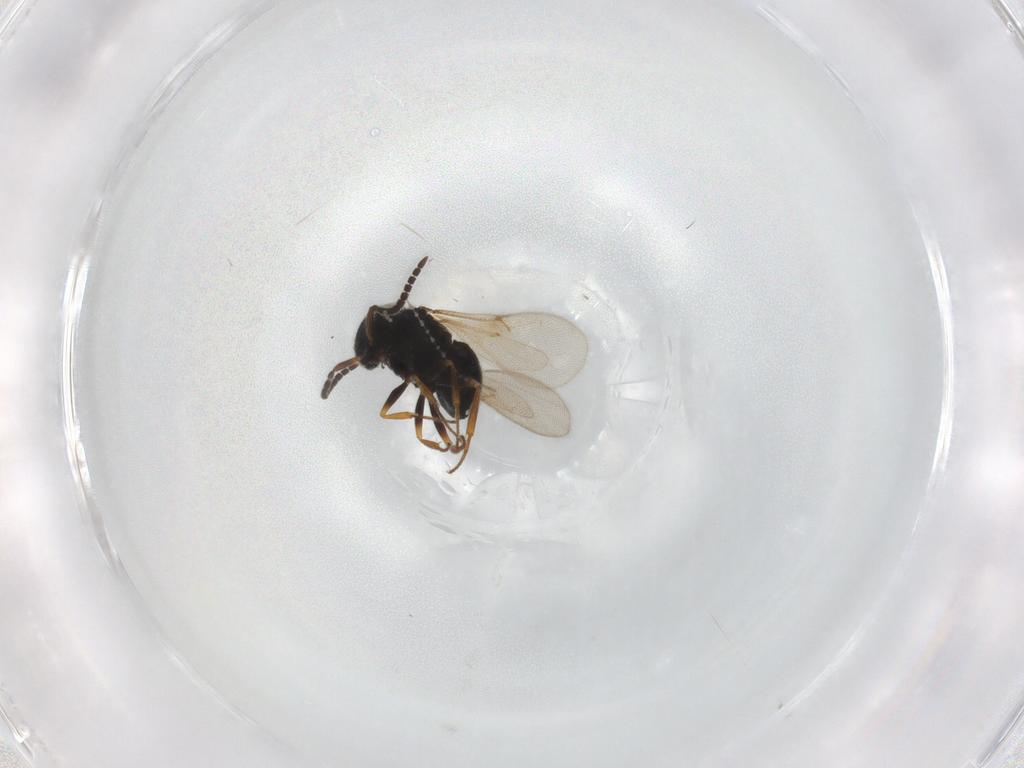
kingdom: Animalia
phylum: Arthropoda
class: Insecta
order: Hymenoptera
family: Scelionidae
